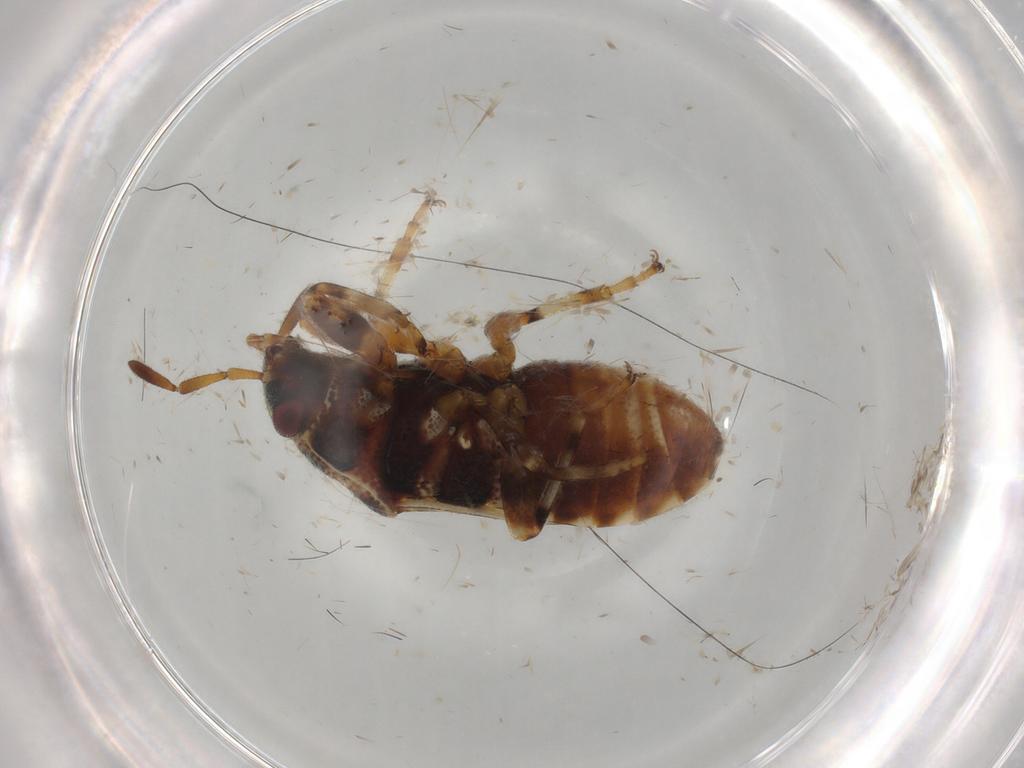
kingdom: Animalia
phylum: Arthropoda
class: Insecta
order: Hemiptera
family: Lygaeidae
